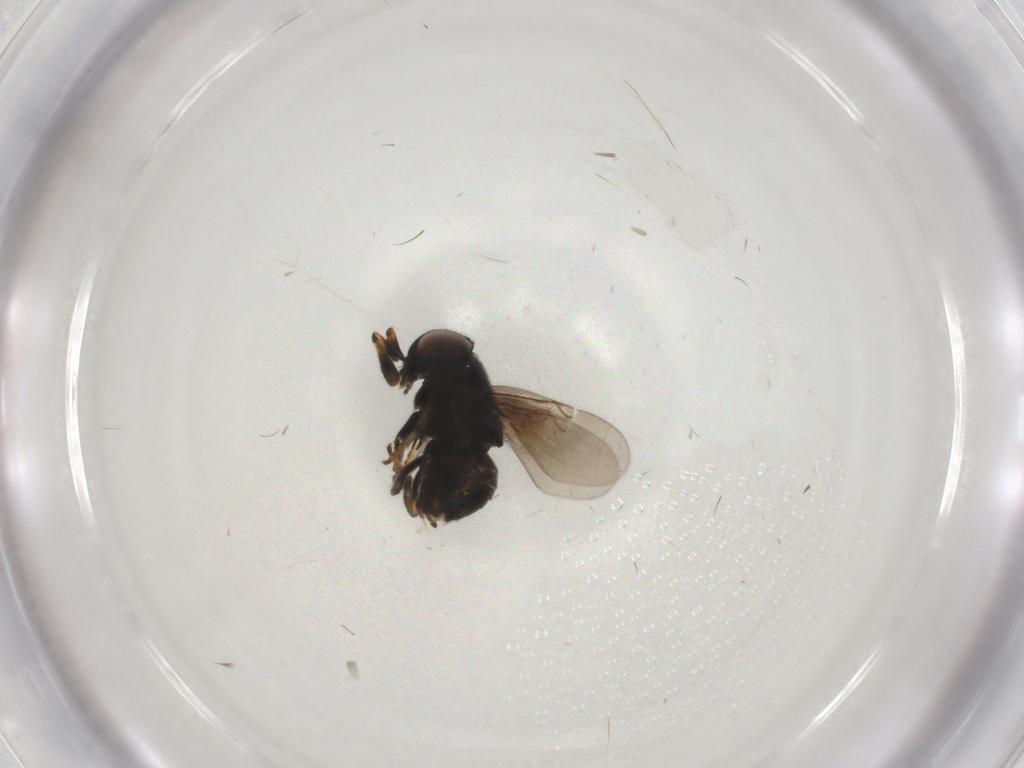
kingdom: Animalia
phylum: Arthropoda
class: Insecta
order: Hymenoptera
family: Encyrtidae
